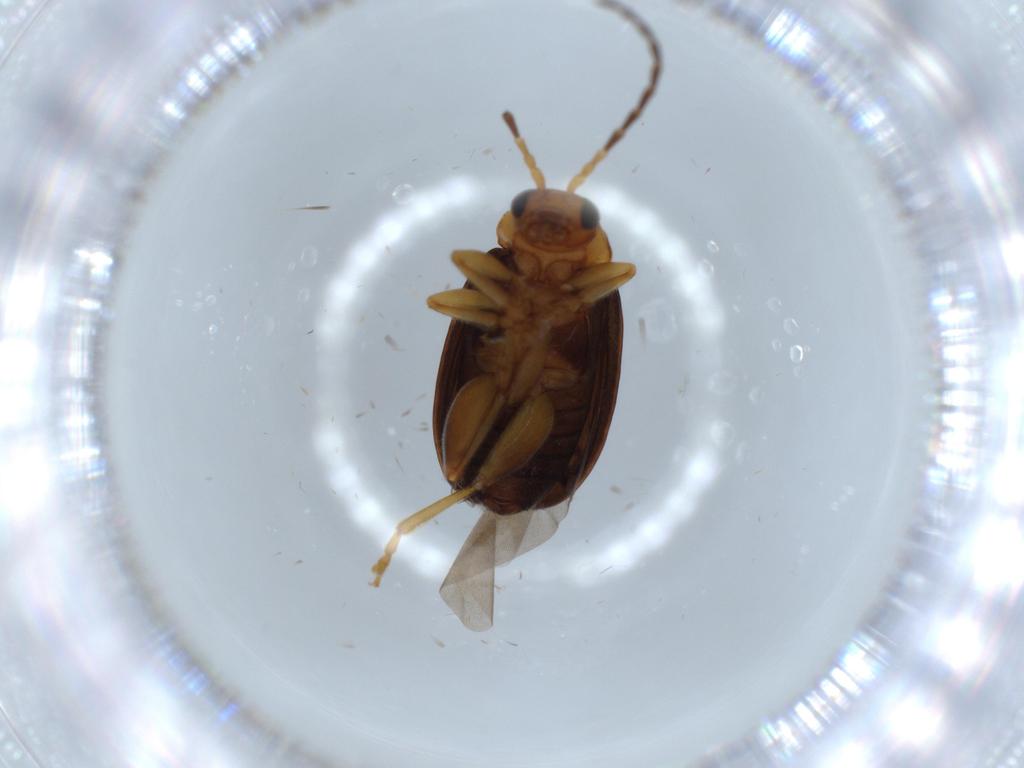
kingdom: Animalia
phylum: Arthropoda
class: Insecta
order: Coleoptera
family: Chrysomelidae
